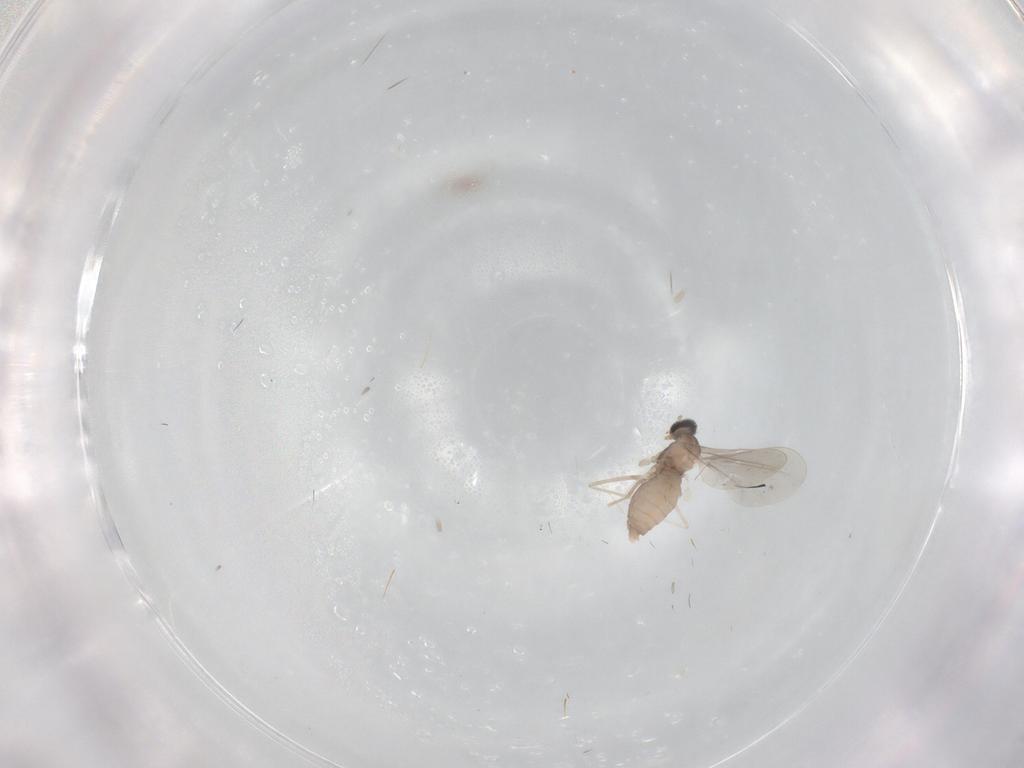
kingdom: Animalia
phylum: Arthropoda
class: Insecta
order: Diptera
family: Cecidomyiidae
